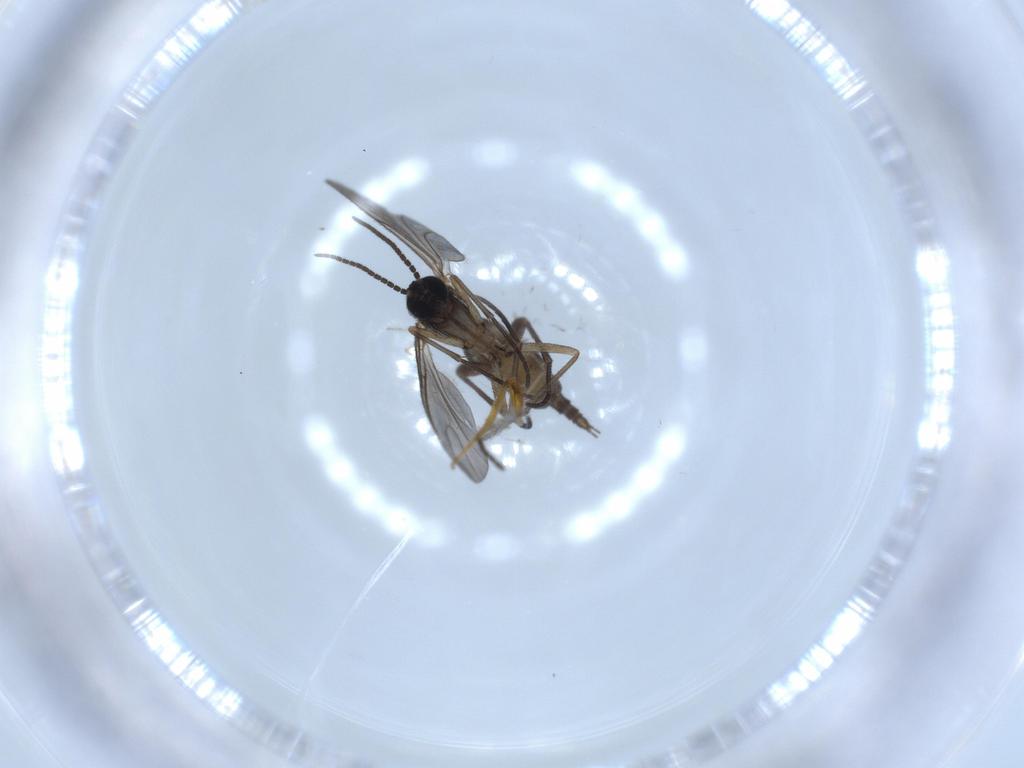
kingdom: Animalia
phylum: Arthropoda
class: Insecta
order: Diptera
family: Sciaridae
